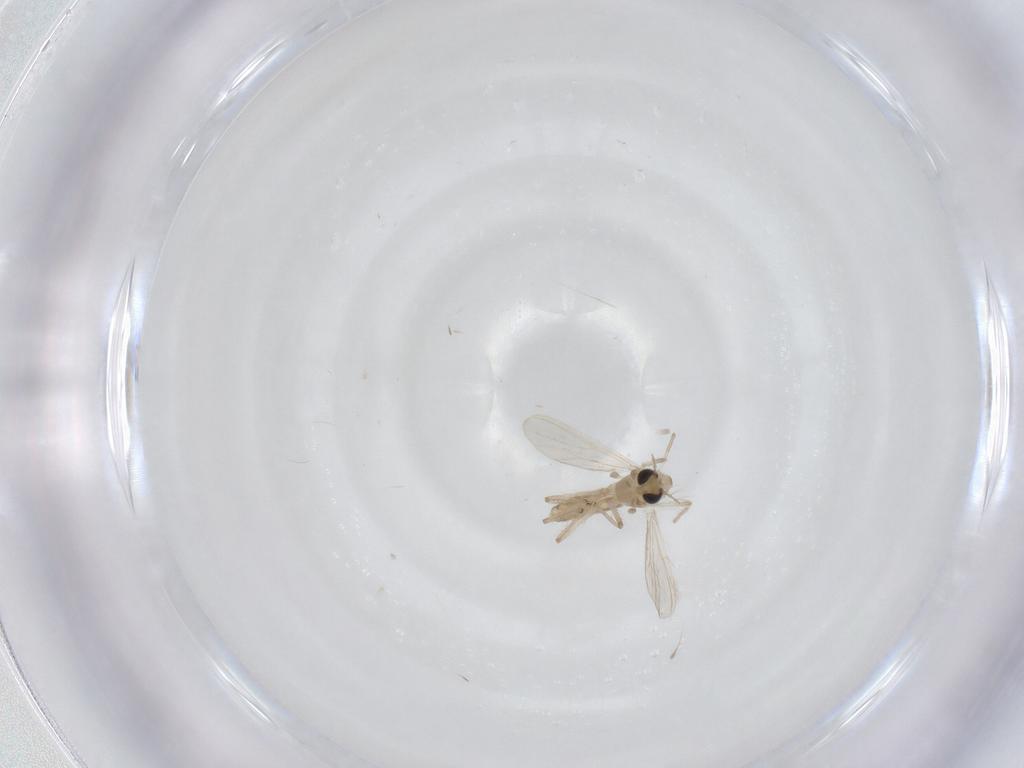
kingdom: Animalia
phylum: Arthropoda
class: Insecta
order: Diptera
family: Chironomidae
